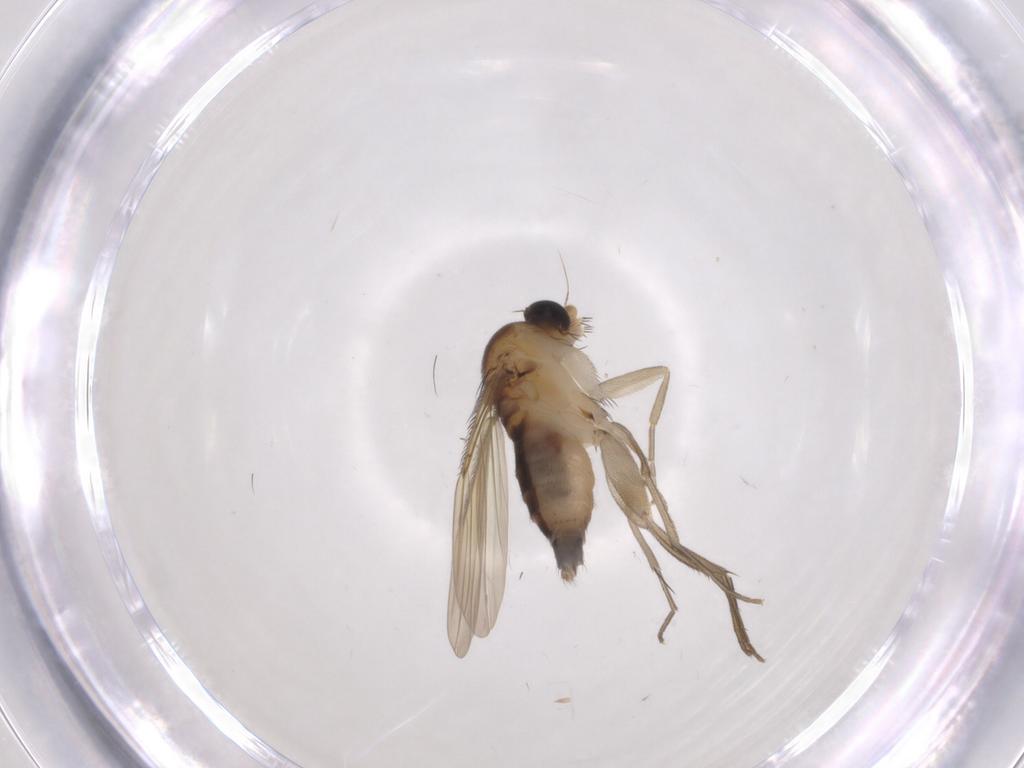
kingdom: Animalia
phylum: Arthropoda
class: Insecta
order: Diptera
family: Phoridae
